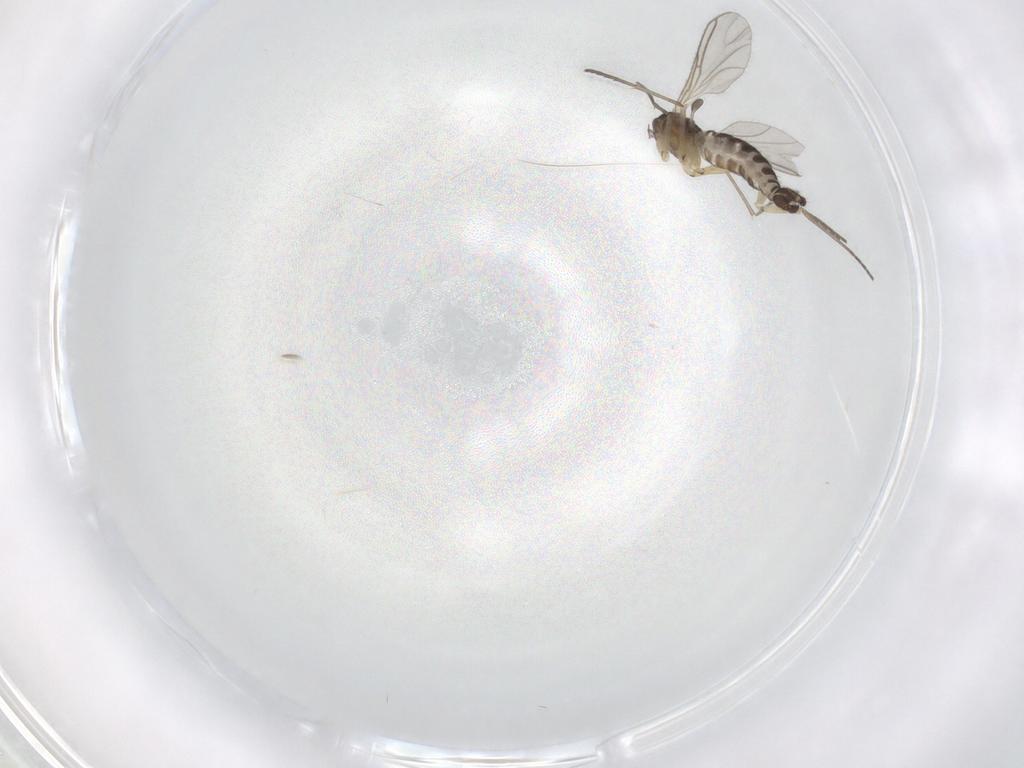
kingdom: Animalia
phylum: Arthropoda
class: Insecta
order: Diptera
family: Sciaridae
